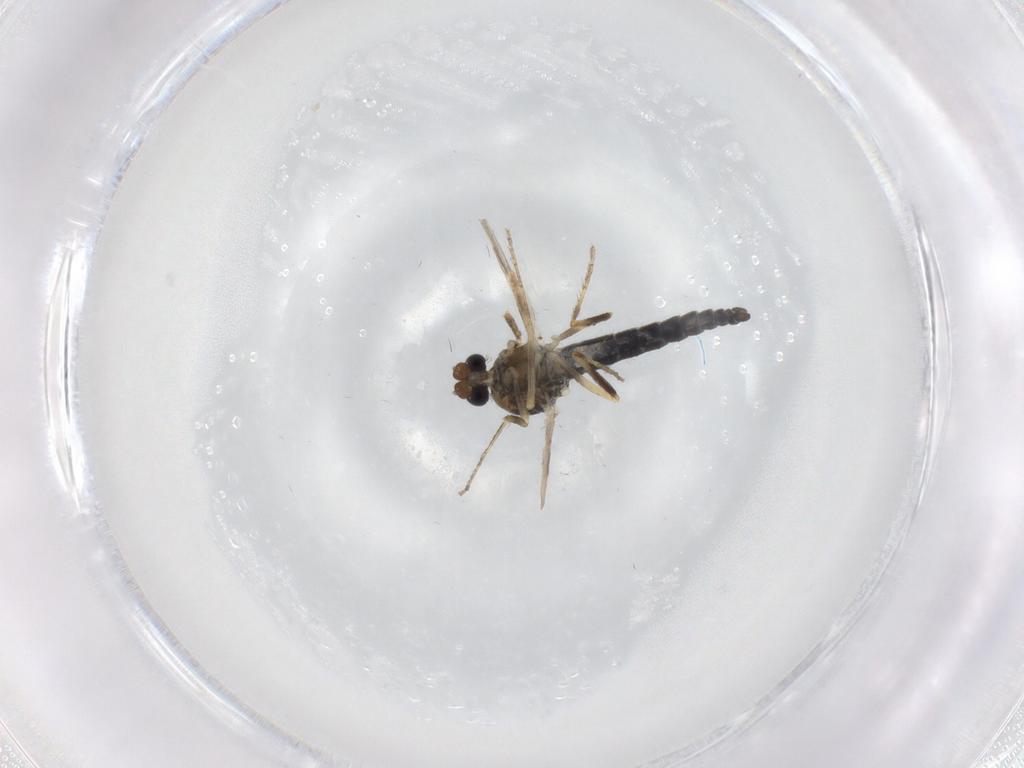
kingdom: Animalia
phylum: Arthropoda
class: Insecta
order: Diptera
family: Ceratopogonidae
